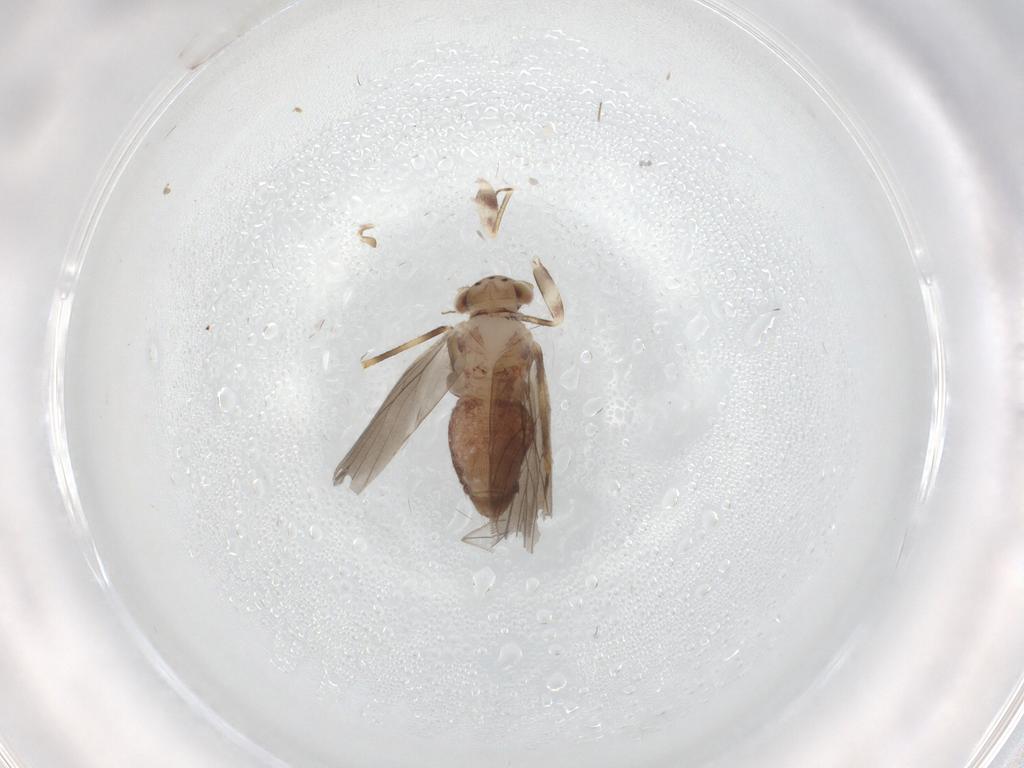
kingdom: Animalia
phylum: Arthropoda
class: Insecta
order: Psocodea
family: Lepidopsocidae
